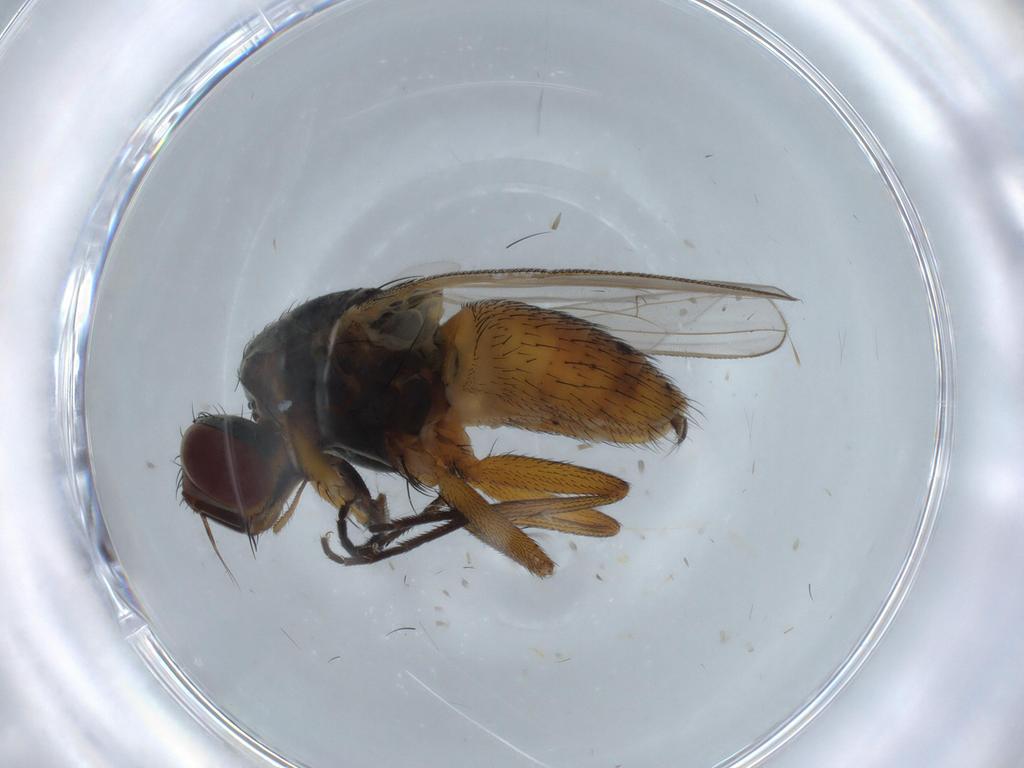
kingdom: Animalia
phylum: Arthropoda
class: Insecta
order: Diptera
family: Muscidae
